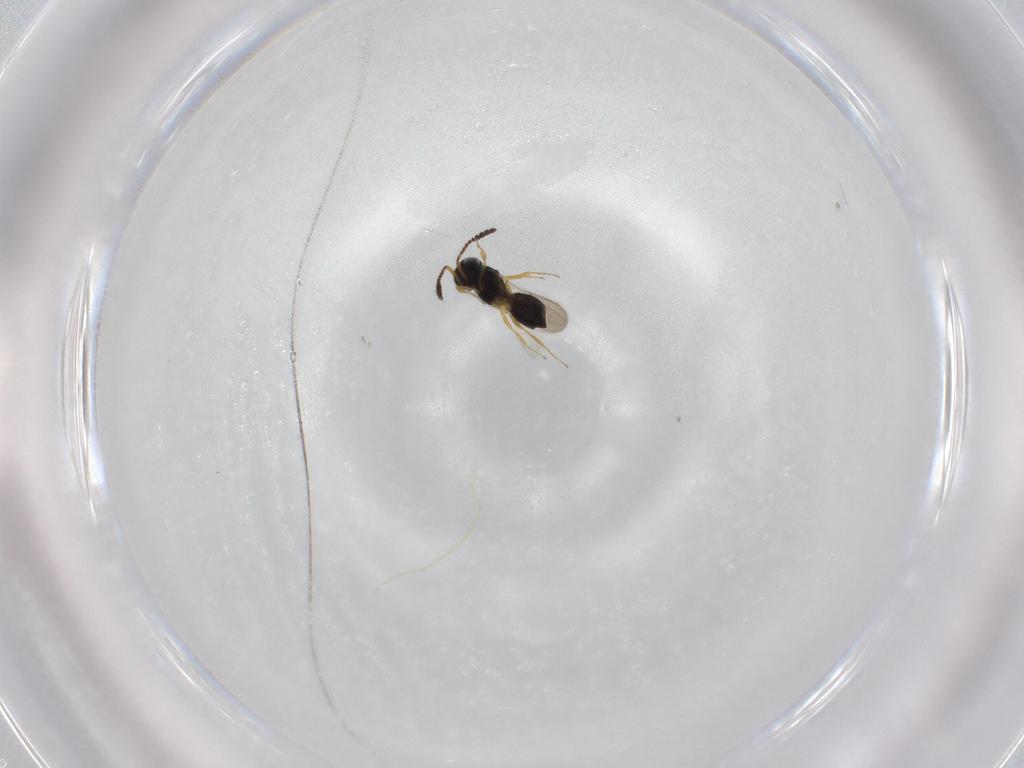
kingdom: Animalia
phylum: Arthropoda
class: Insecta
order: Hymenoptera
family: Scelionidae
